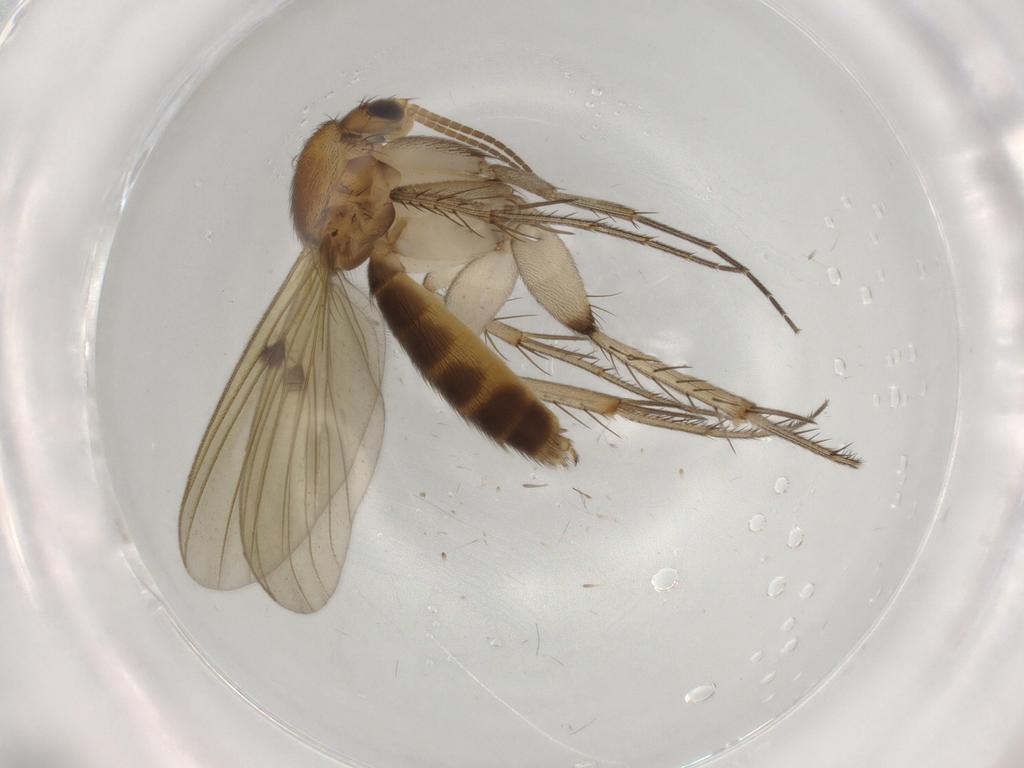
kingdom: Animalia
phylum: Arthropoda
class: Insecta
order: Diptera
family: Mycetophilidae
